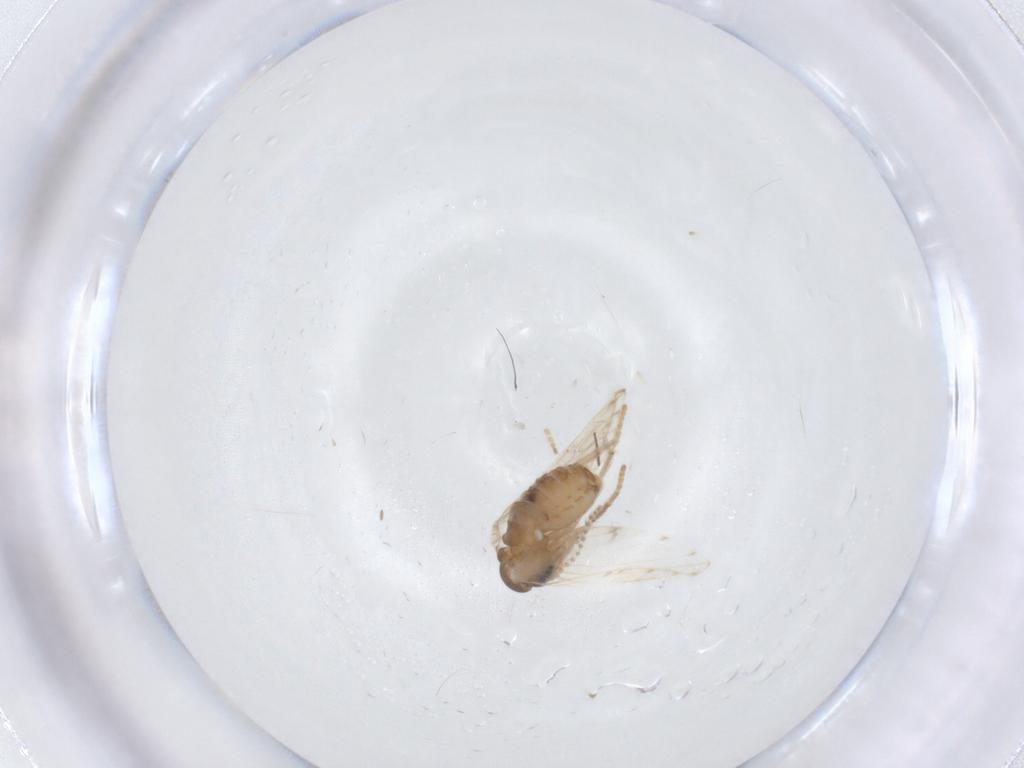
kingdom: Animalia
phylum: Arthropoda
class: Insecta
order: Diptera
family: Psychodidae
